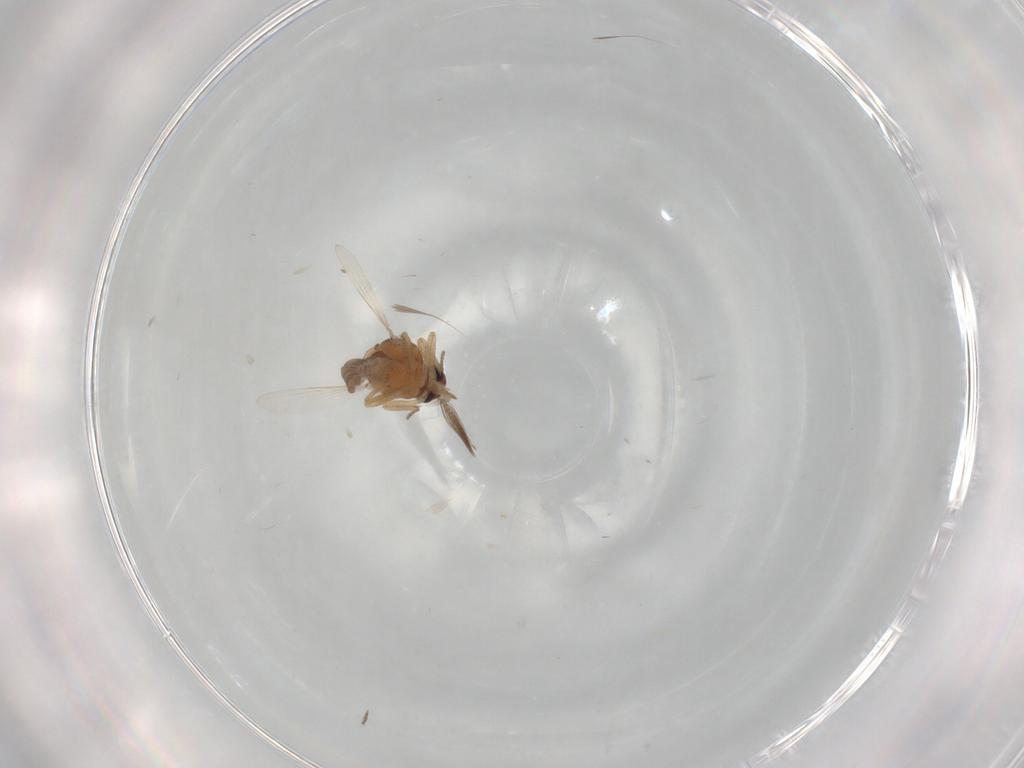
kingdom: Animalia
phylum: Arthropoda
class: Insecta
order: Diptera
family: Ceratopogonidae
